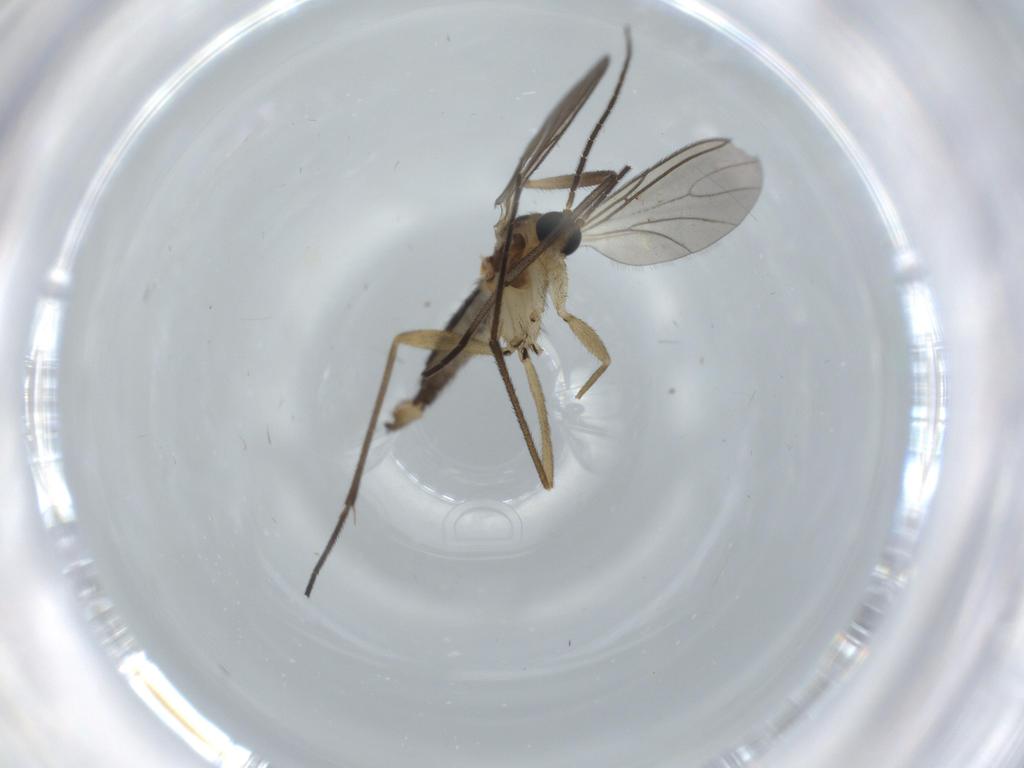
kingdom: Animalia
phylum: Arthropoda
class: Insecta
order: Diptera
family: Sciaridae
